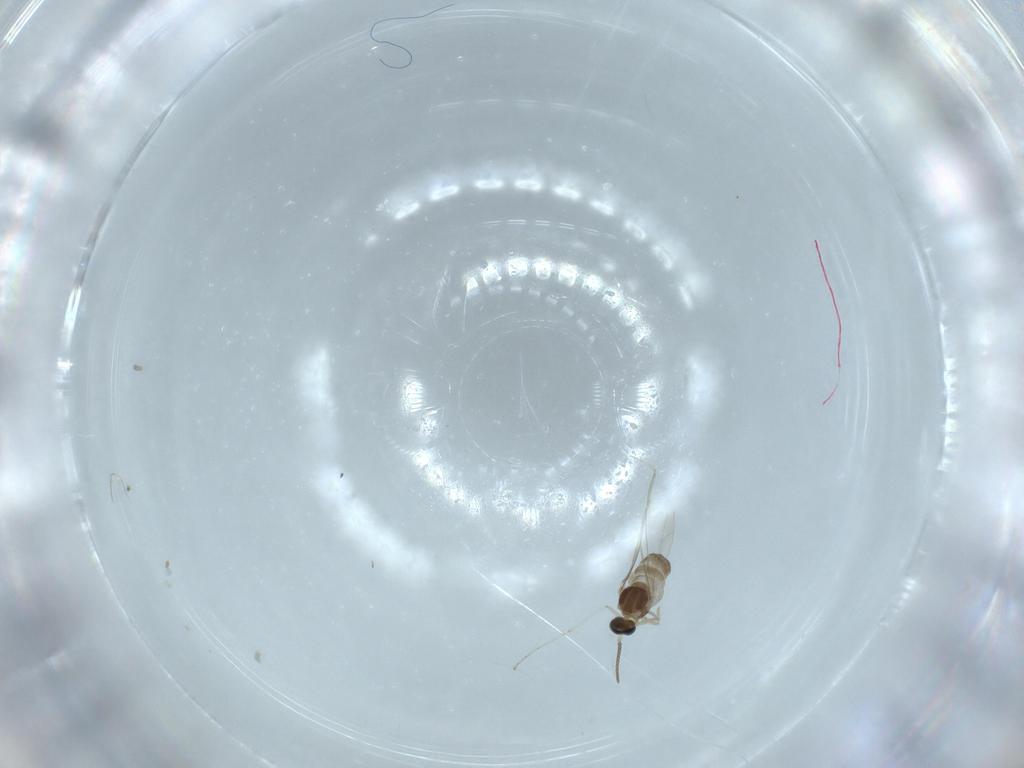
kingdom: Animalia
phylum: Arthropoda
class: Insecta
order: Diptera
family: Cecidomyiidae
